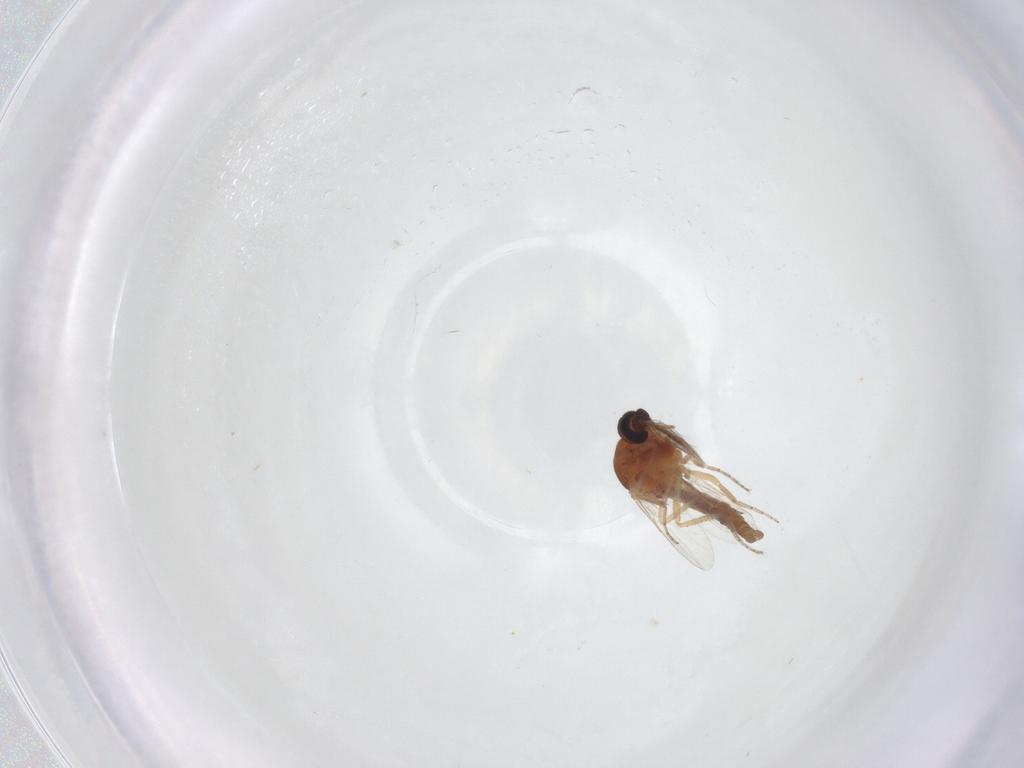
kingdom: Animalia
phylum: Arthropoda
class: Insecta
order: Diptera
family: Ceratopogonidae
